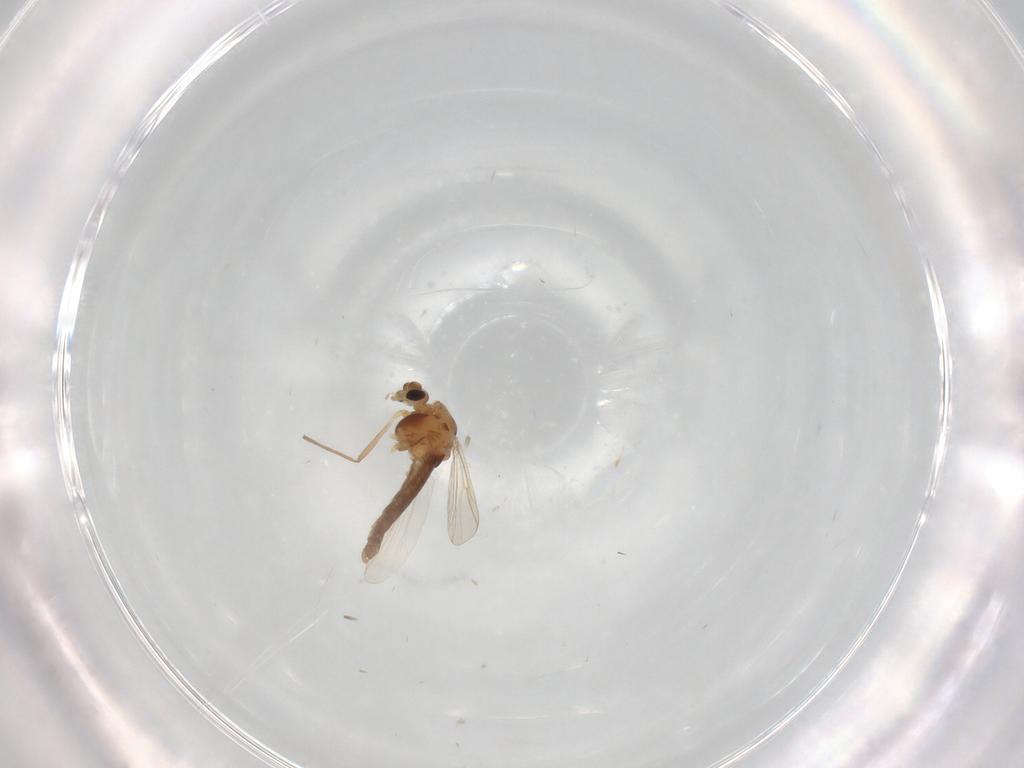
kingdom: Animalia
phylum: Arthropoda
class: Insecta
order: Diptera
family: Chironomidae
